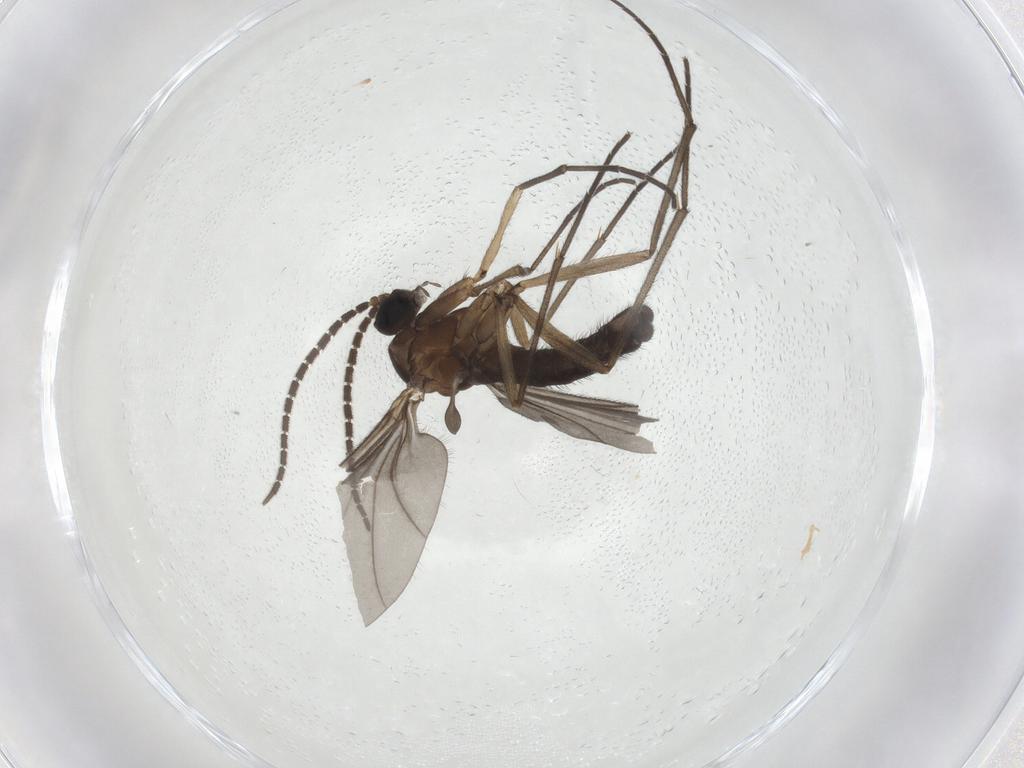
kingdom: Animalia
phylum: Arthropoda
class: Insecta
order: Diptera
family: Sciaridae
